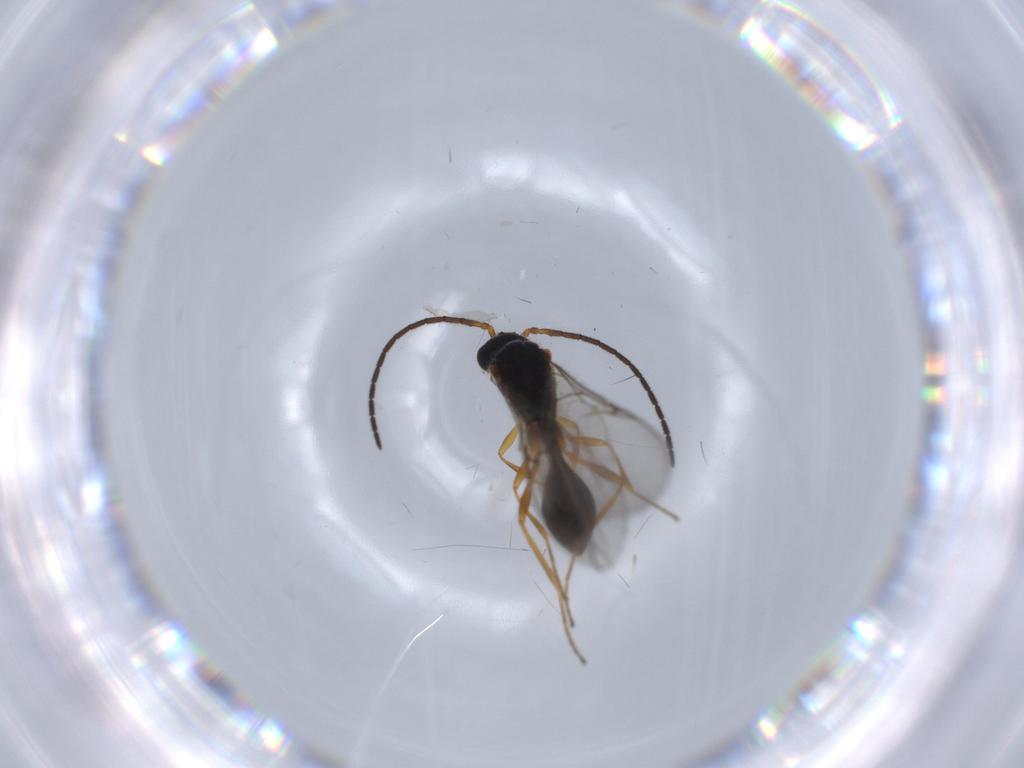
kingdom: Animalia
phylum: Arthropoda
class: Insecta
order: Hymenoptera
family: Diapriidae
